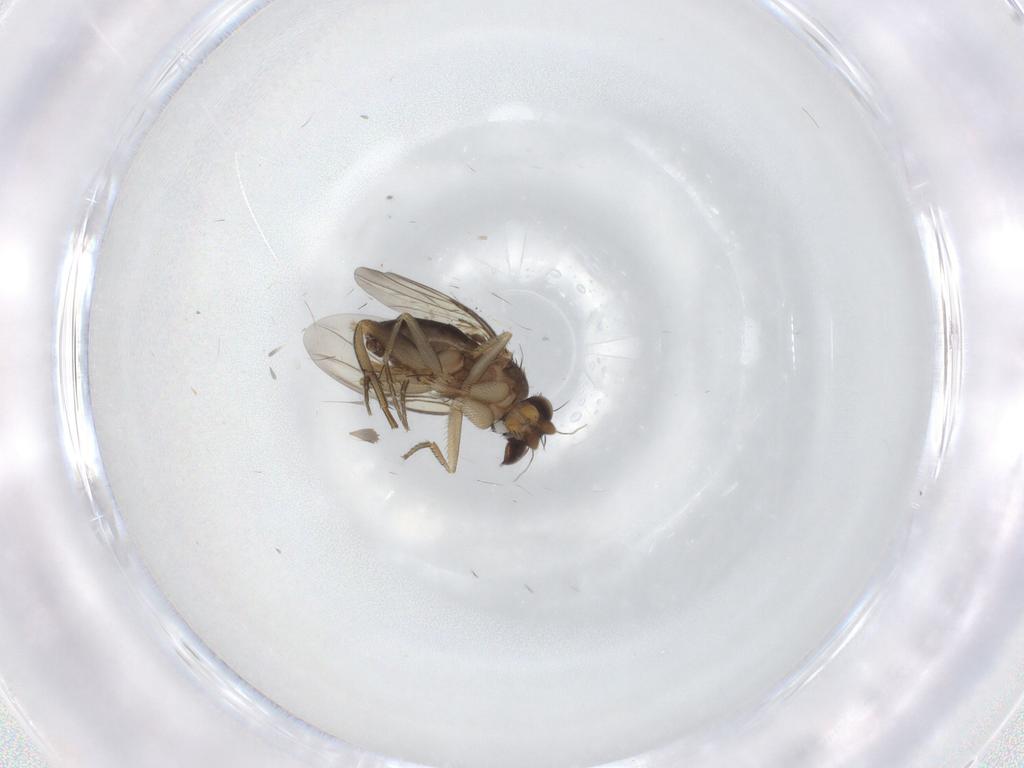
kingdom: Animalia
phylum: Arthropoda
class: Insecta
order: Diptera
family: Phoridae
